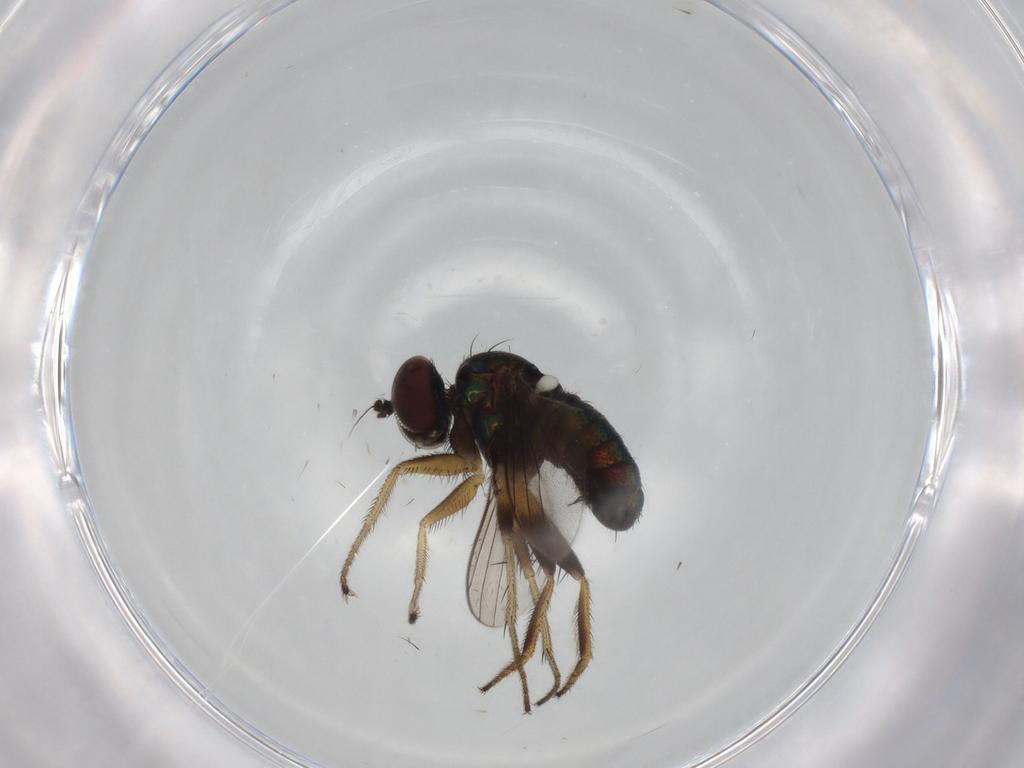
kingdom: Animalia
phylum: Arthropoda
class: Insecta
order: Diptera
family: Dolichopodidae
